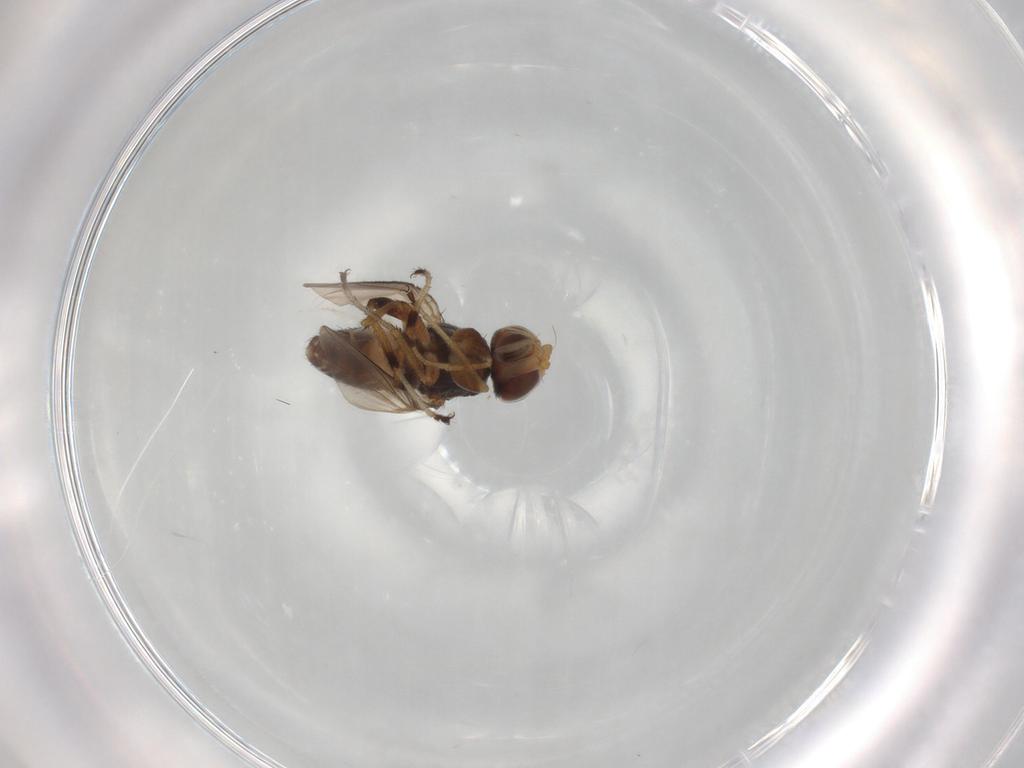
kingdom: Animalia
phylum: Arthropoda
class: Insecta
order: Diptera
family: Canacidae
